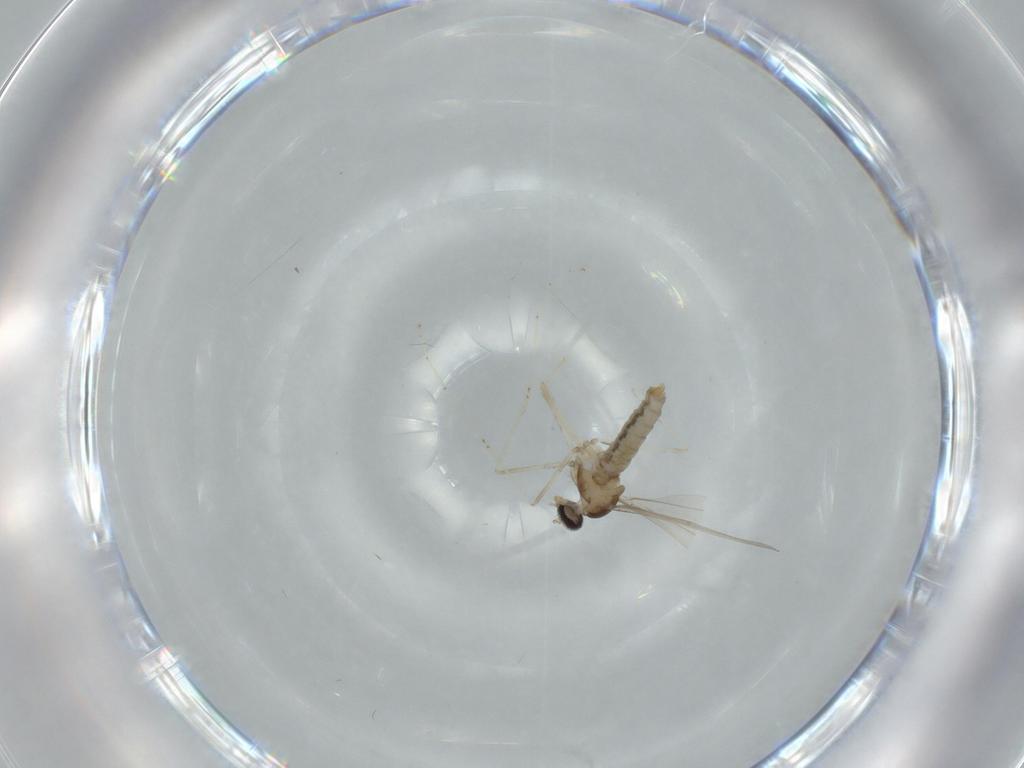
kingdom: Animalia
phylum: Arthropoda
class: Insecta
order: Diptera
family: Cecidomyiidae
